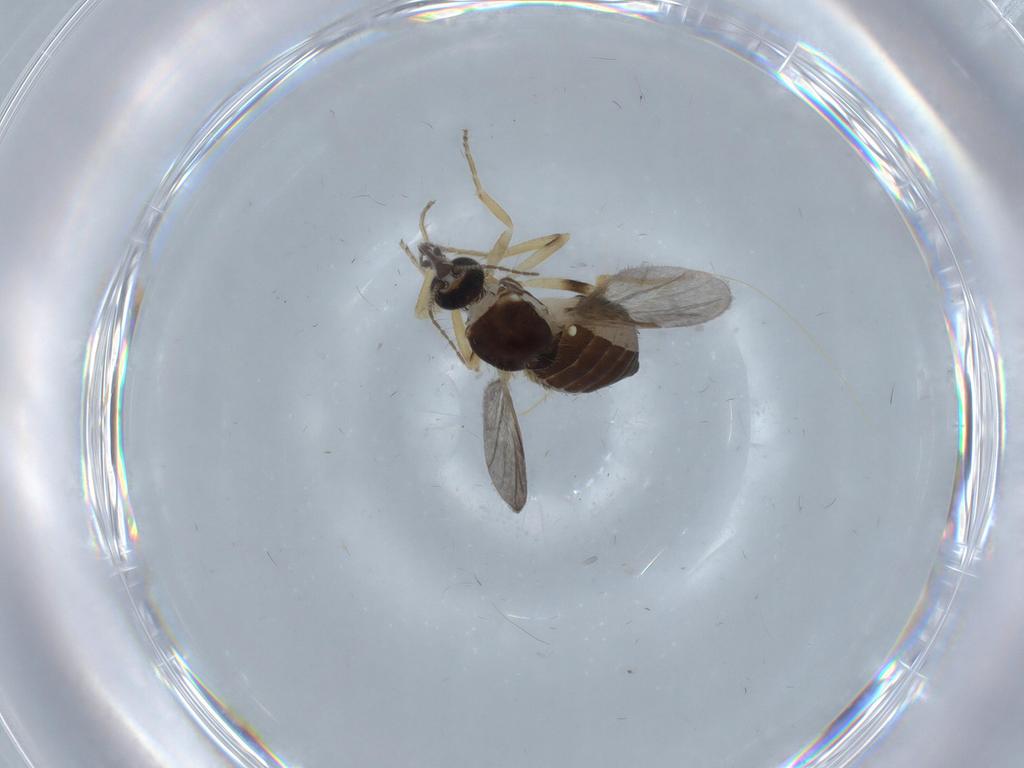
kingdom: Animalia
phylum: Arthropoda
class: Insecta
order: Diptera
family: Ceratopogonidae
